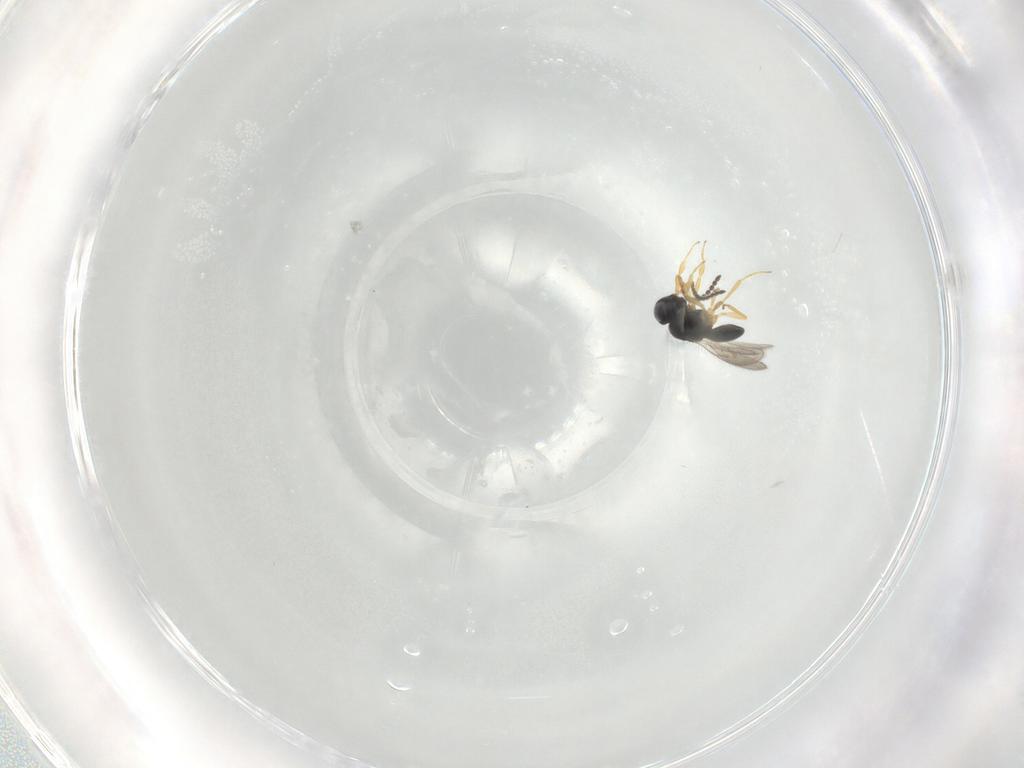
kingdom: Animalia
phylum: Arthropoda
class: Insecta
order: Hymenoptera
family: Scelionidae
